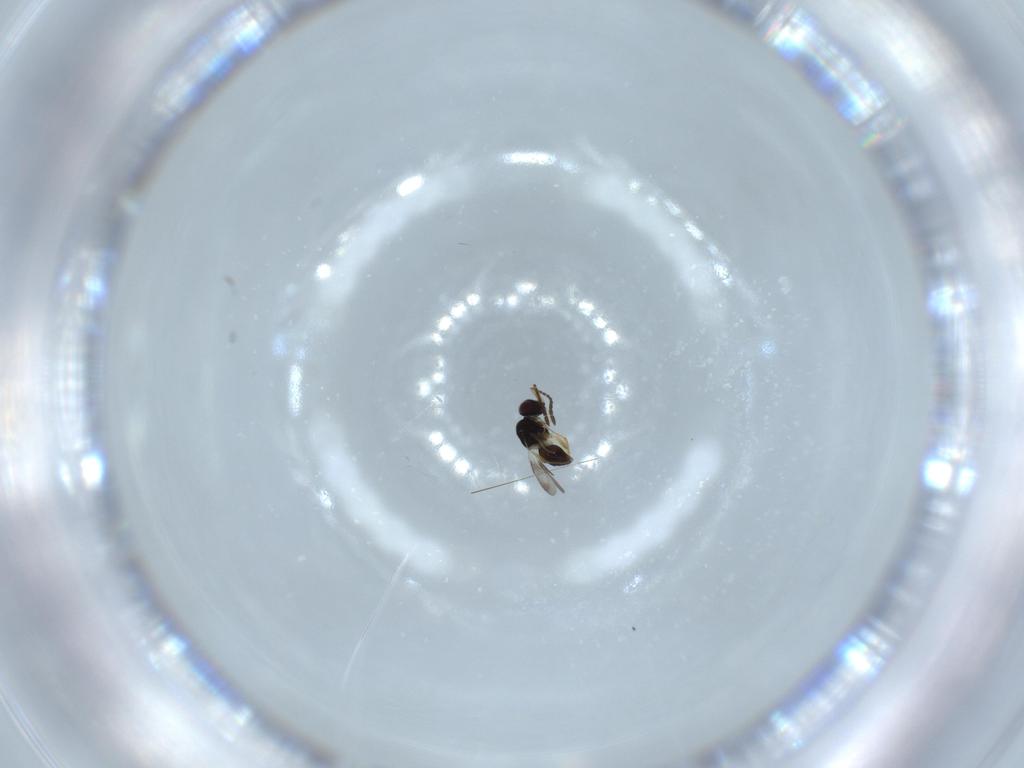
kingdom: Animalia
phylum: Arthropoda
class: Insecta
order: Hymenoptera
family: Ceraphronidae
